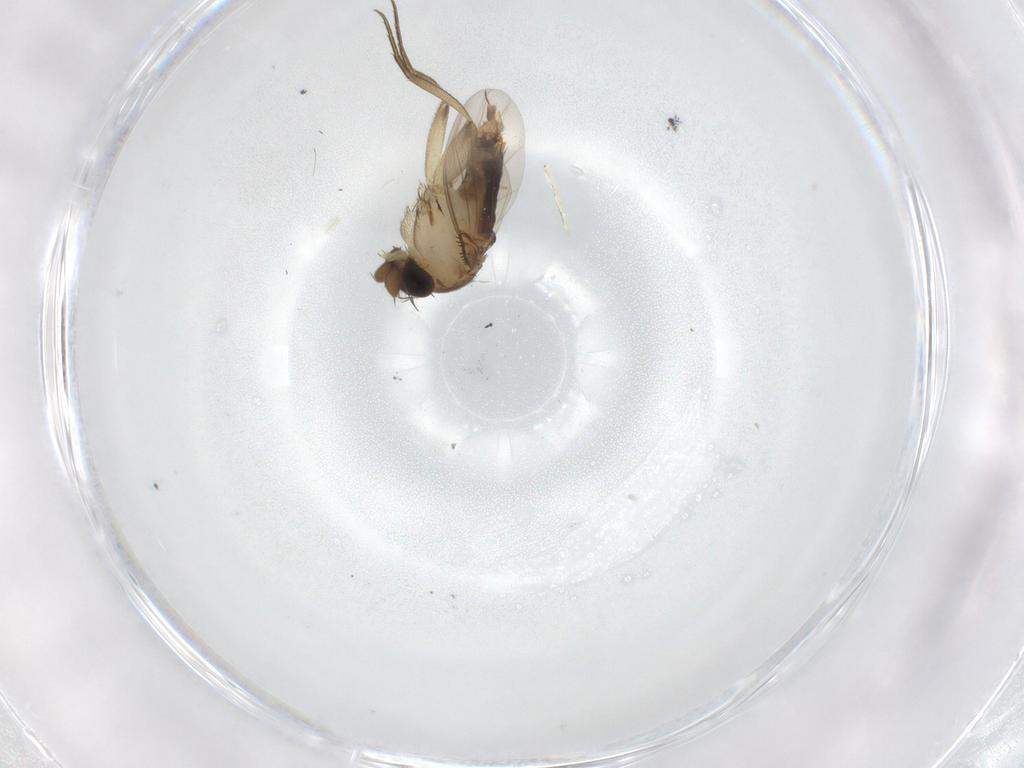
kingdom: Animalia
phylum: Arthropoda
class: Insecta
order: Diptera
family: Phoridae
